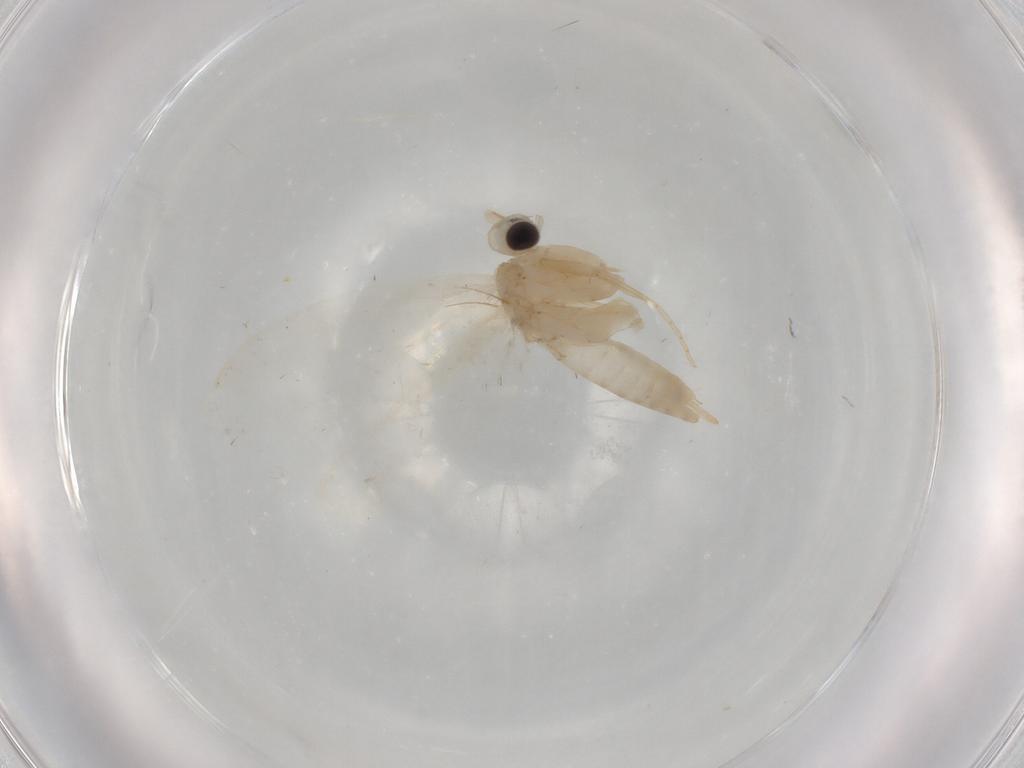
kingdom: Animalia
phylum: Arthropoda
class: Insecta
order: Lepidoptera
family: Psychidae
